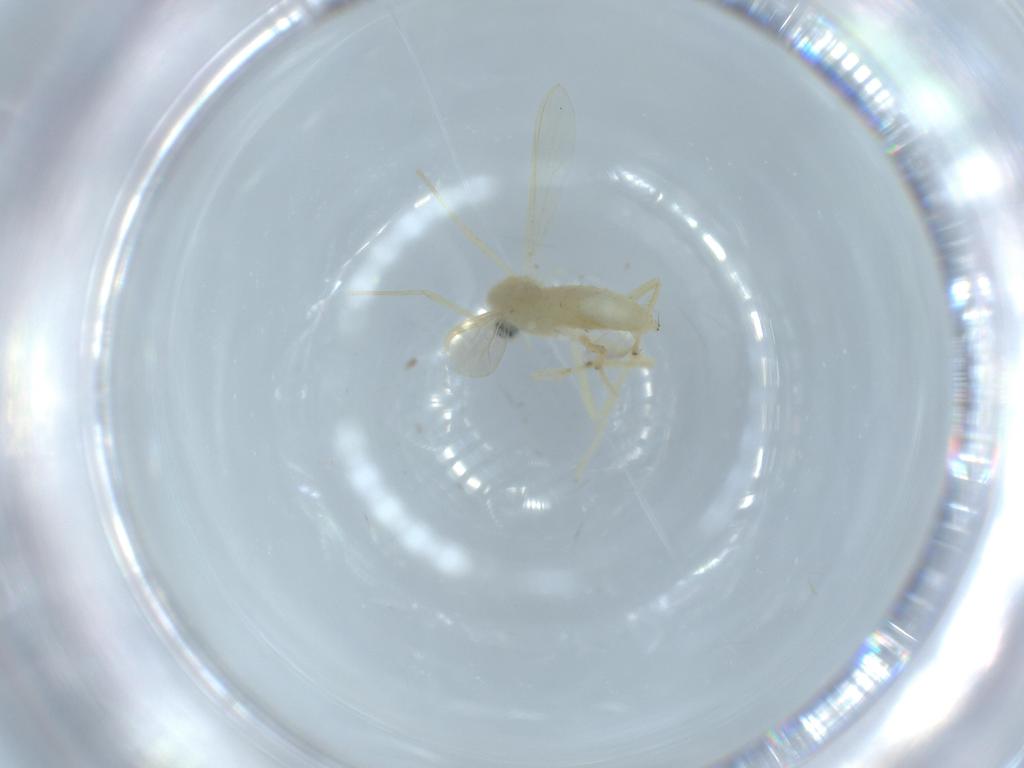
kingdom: Animalia
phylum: Arthropoda
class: Insecta
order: Diptera
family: Chironomidae
